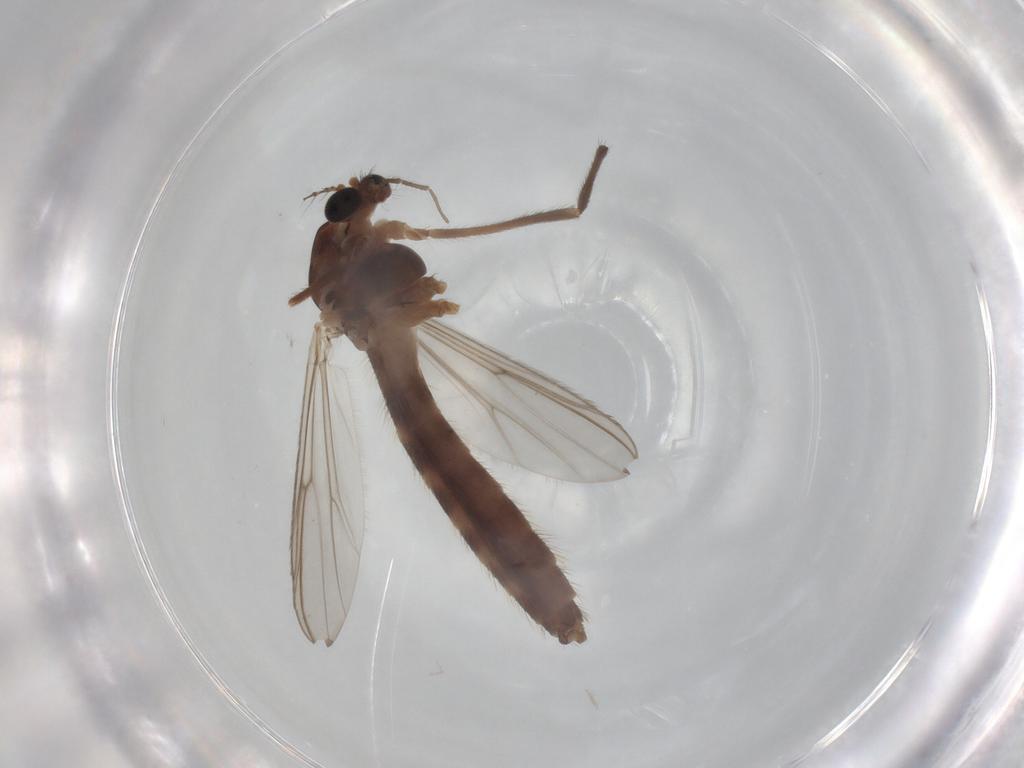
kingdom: Animalia
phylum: Arthropoda
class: Insecta
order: Diptera
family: Chironomidae
